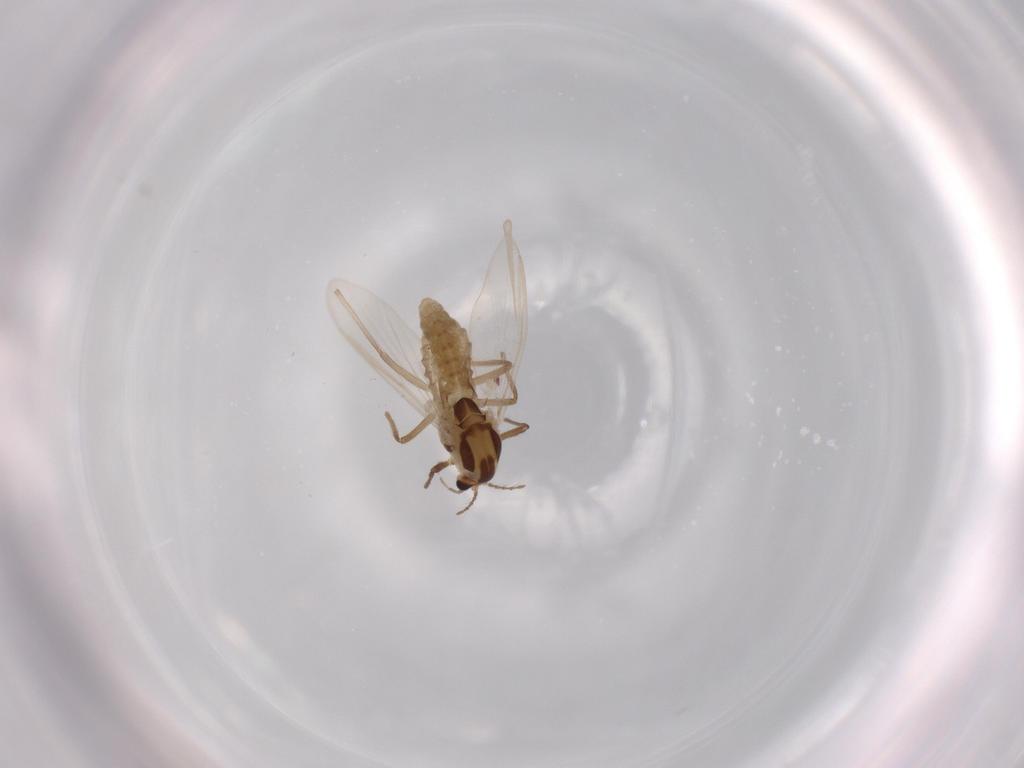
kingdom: Animalia
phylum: Arthropoda
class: Insecta
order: Diptera
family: Chironomidae
